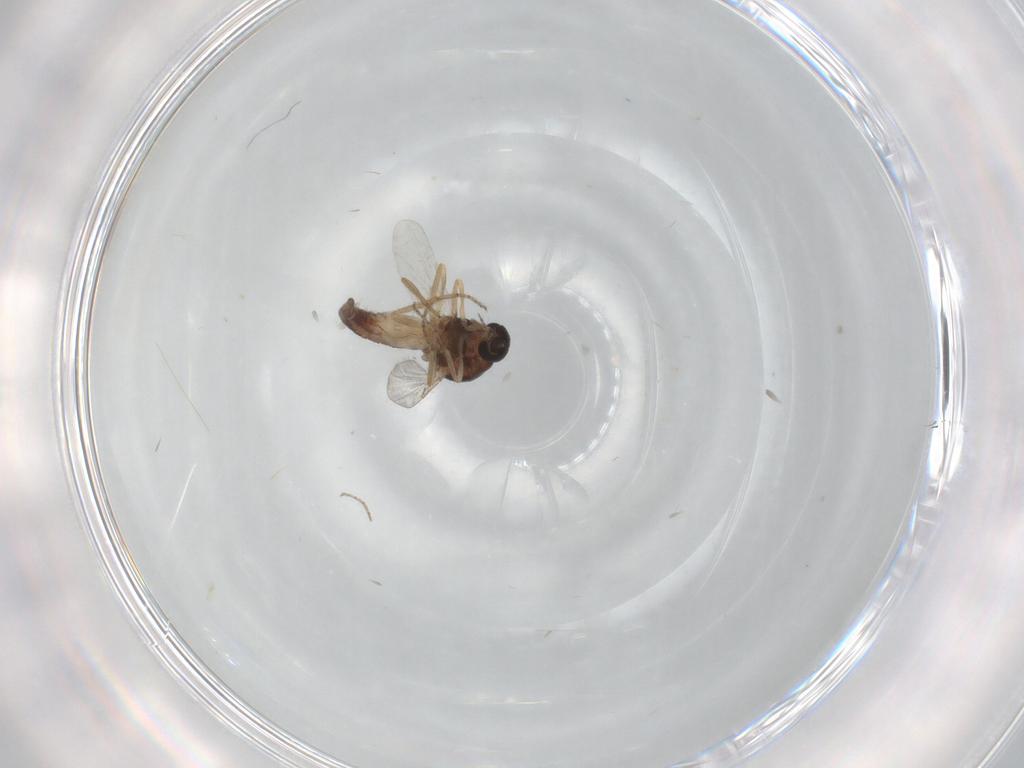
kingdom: Animalia
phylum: Arthropoda
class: Insecta
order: Diptera
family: Ceratopogonidae
